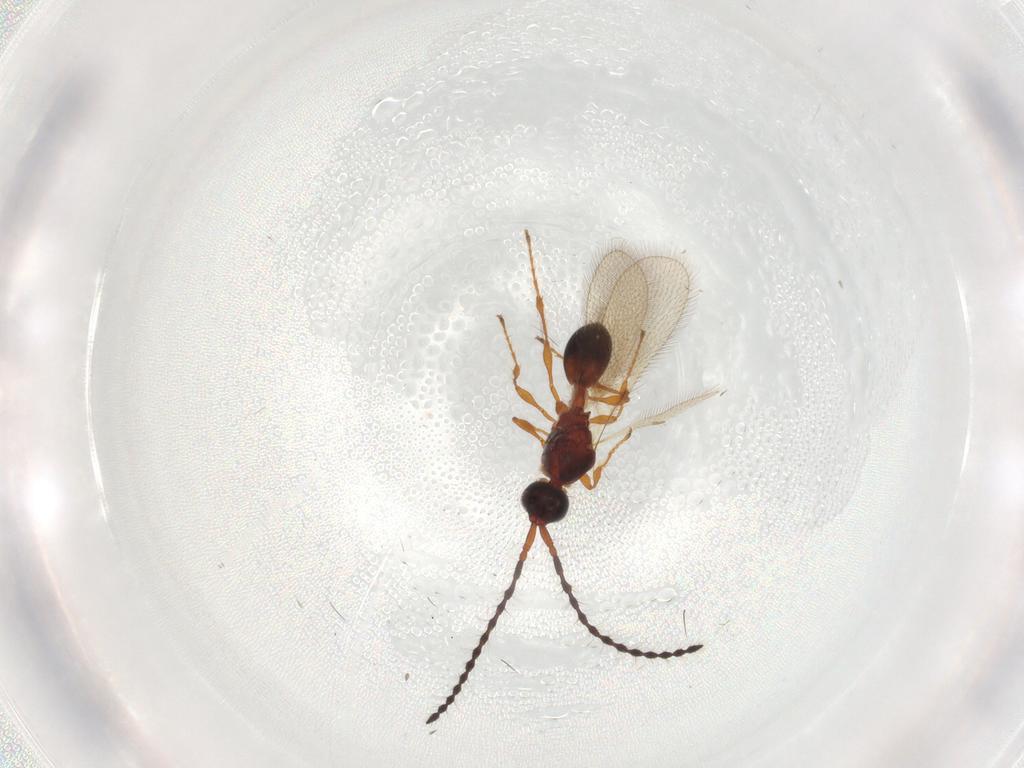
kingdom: Animalia
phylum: Arthropoda
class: Insecta
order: Hymenoptera
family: Diapriidae
